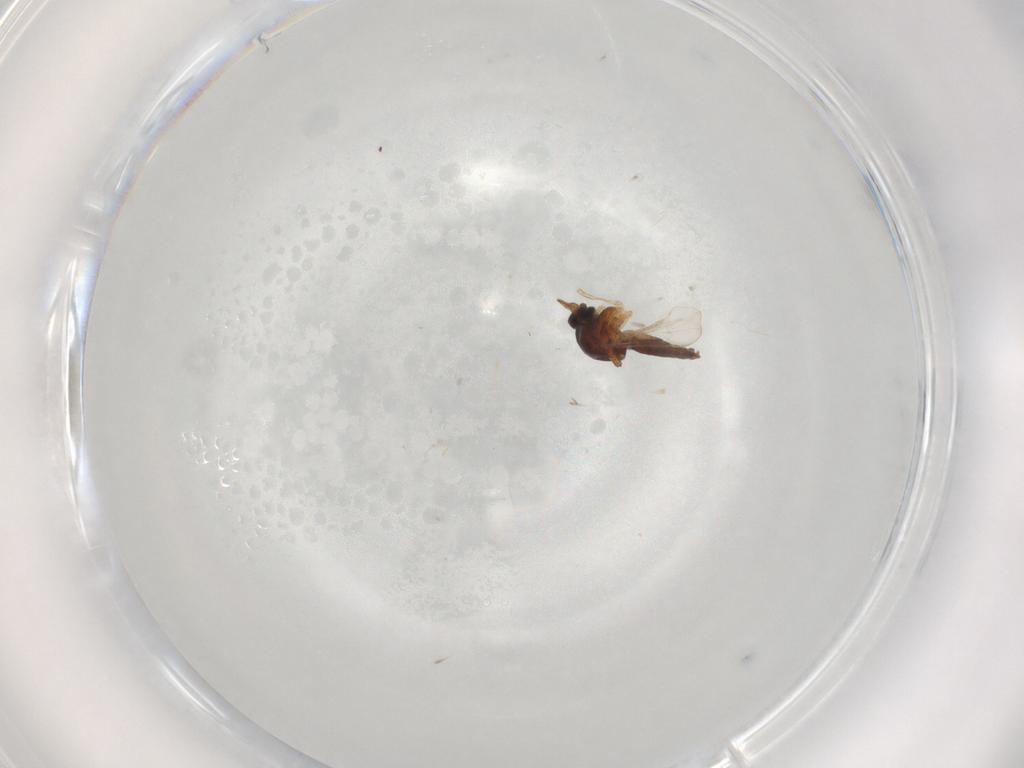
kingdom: Animalia
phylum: Arthropoda
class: Insecta
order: Diptera
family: Ceratopogonidae
